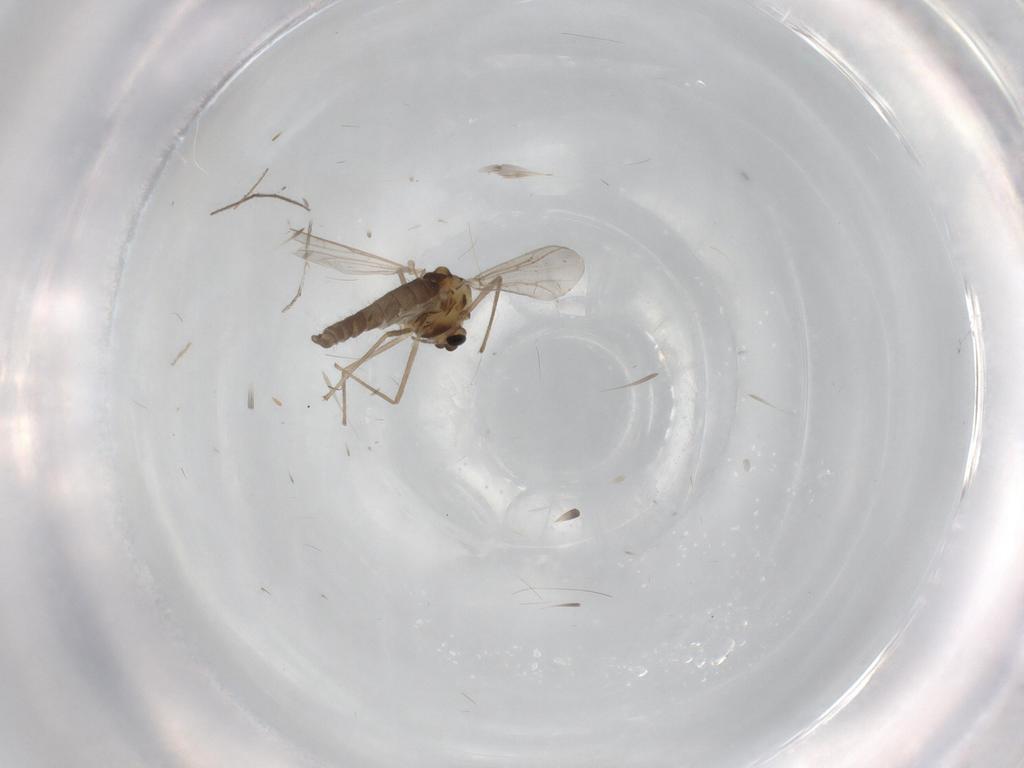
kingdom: Animalia
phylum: Arthropoda
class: Insecta
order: Diptera
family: Chironomidae
